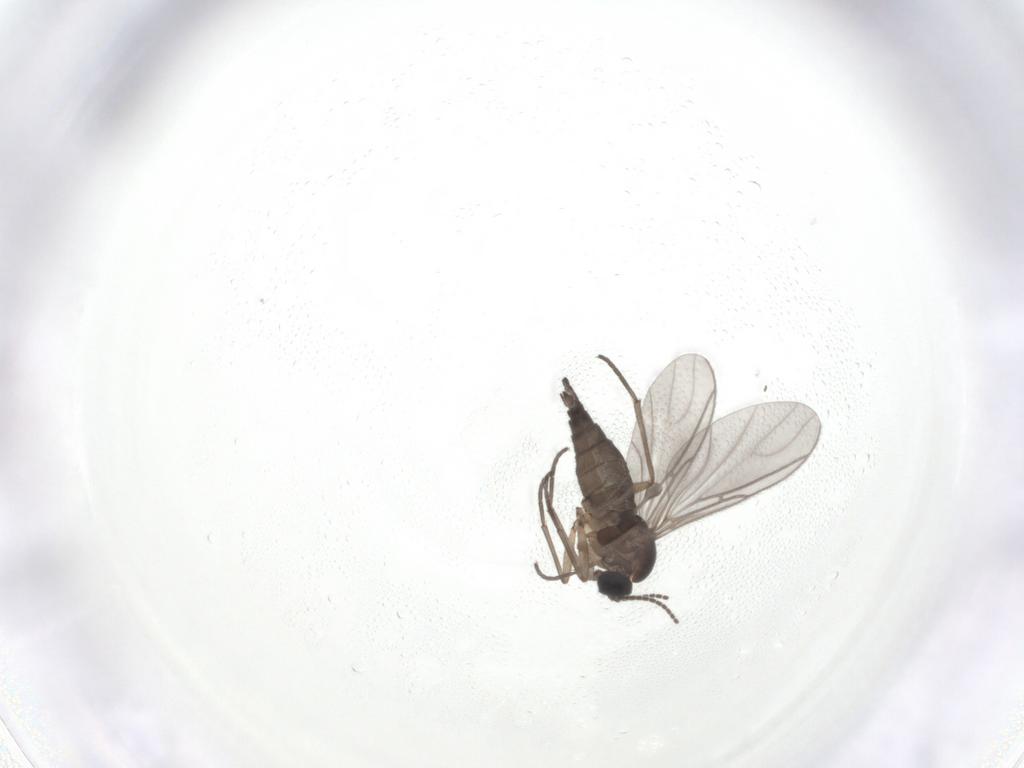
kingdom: Animalia
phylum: Arthropoda
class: Insecta
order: Diptera
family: Sciaridae
